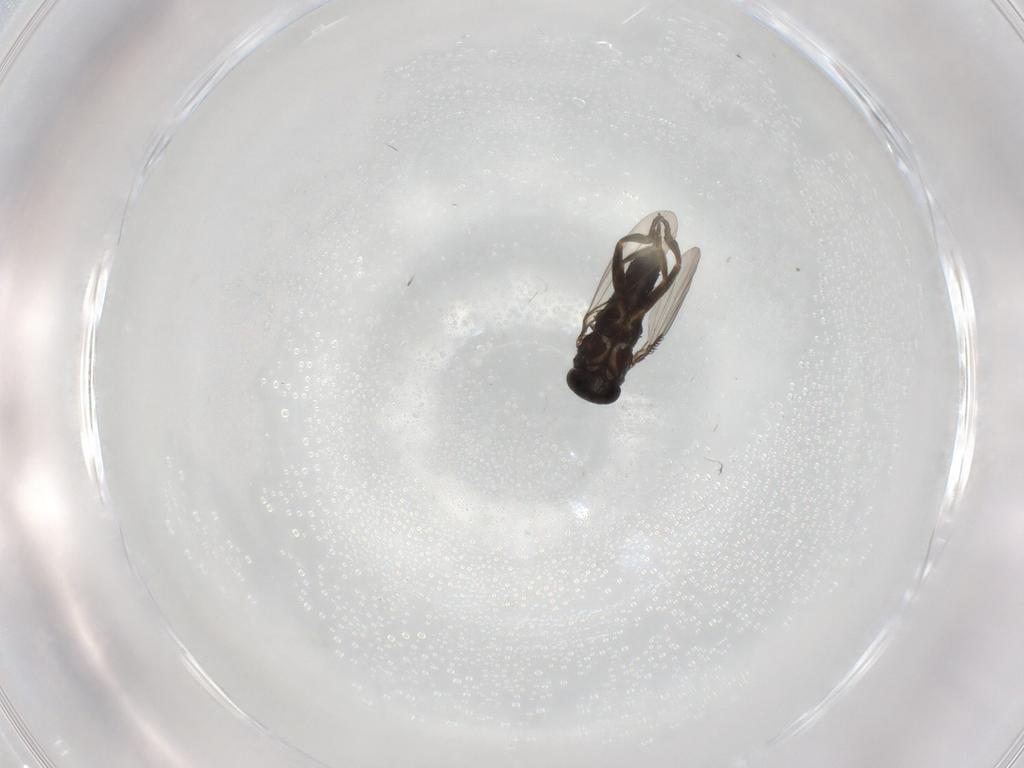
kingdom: Animalia
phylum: Arthropoda
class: Insecta
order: Diptera
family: Phoridae
